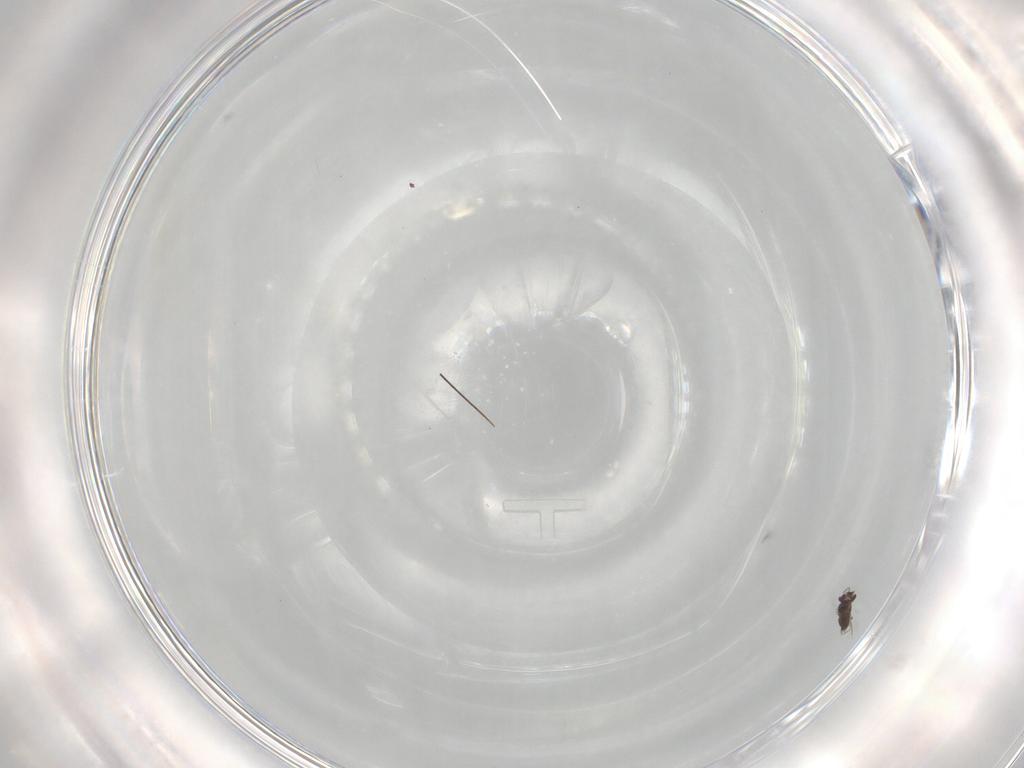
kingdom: Animalia
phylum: Arthropoda
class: Insecta
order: Hymenoptera
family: Mymaridae
